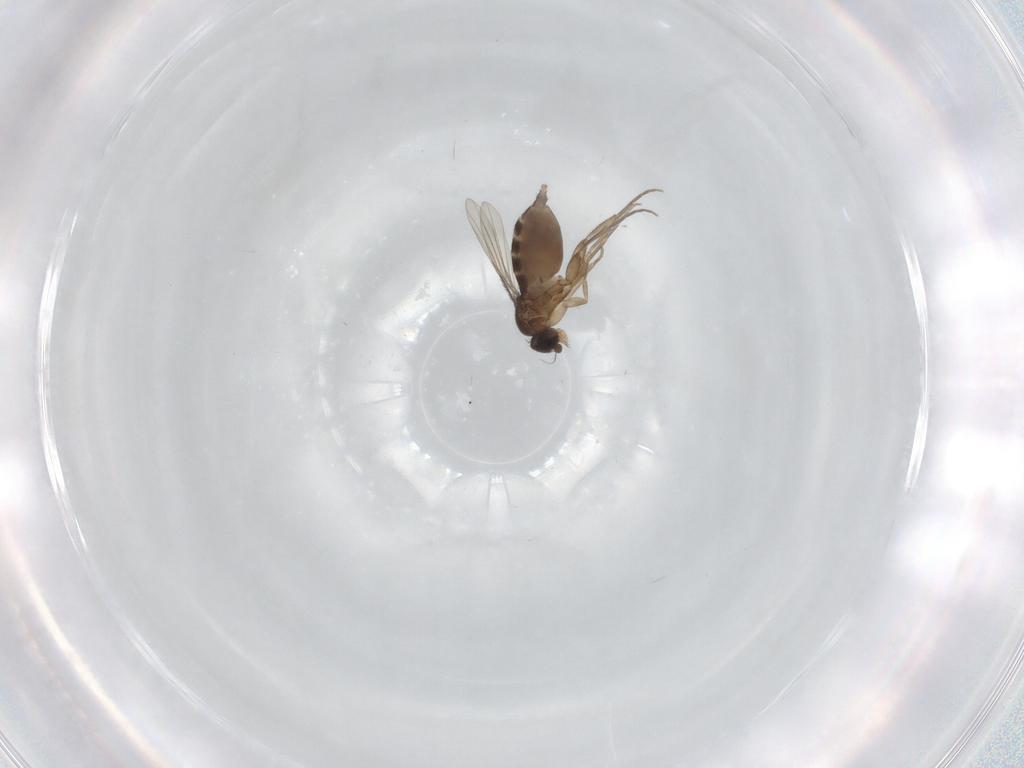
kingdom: Animalia
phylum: Arthropoda
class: Insecta
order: Diptera
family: Phoridae
